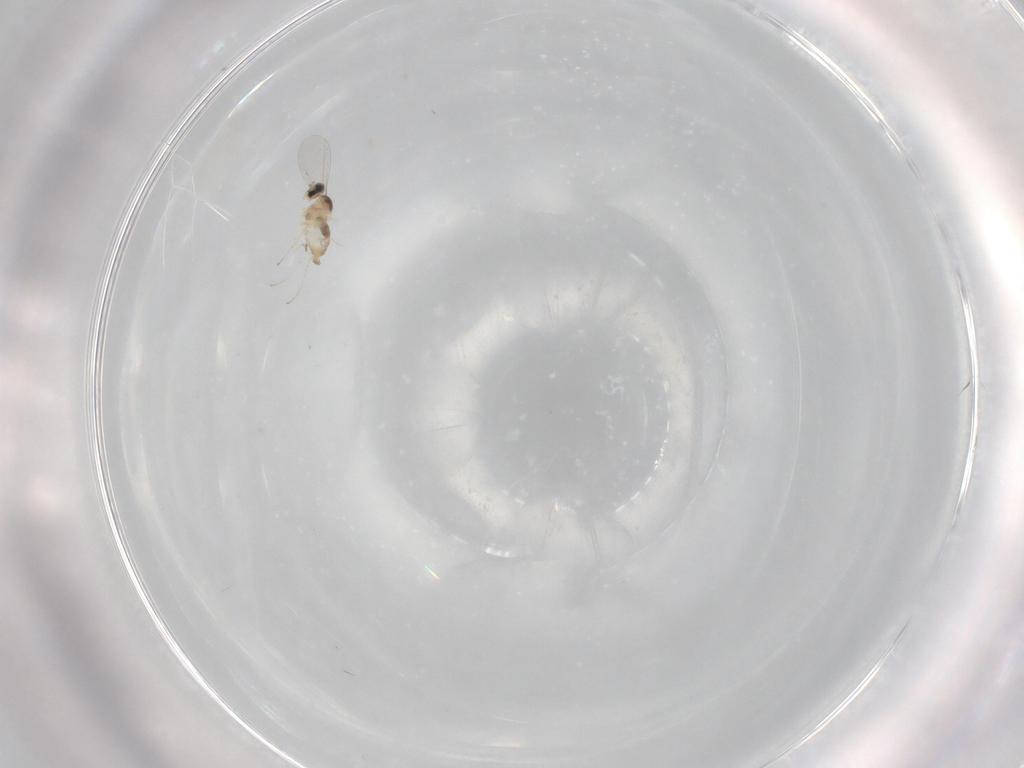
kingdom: Animalia
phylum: Arthropoda
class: Insecta
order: Diptera
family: Cecidomyiidae
